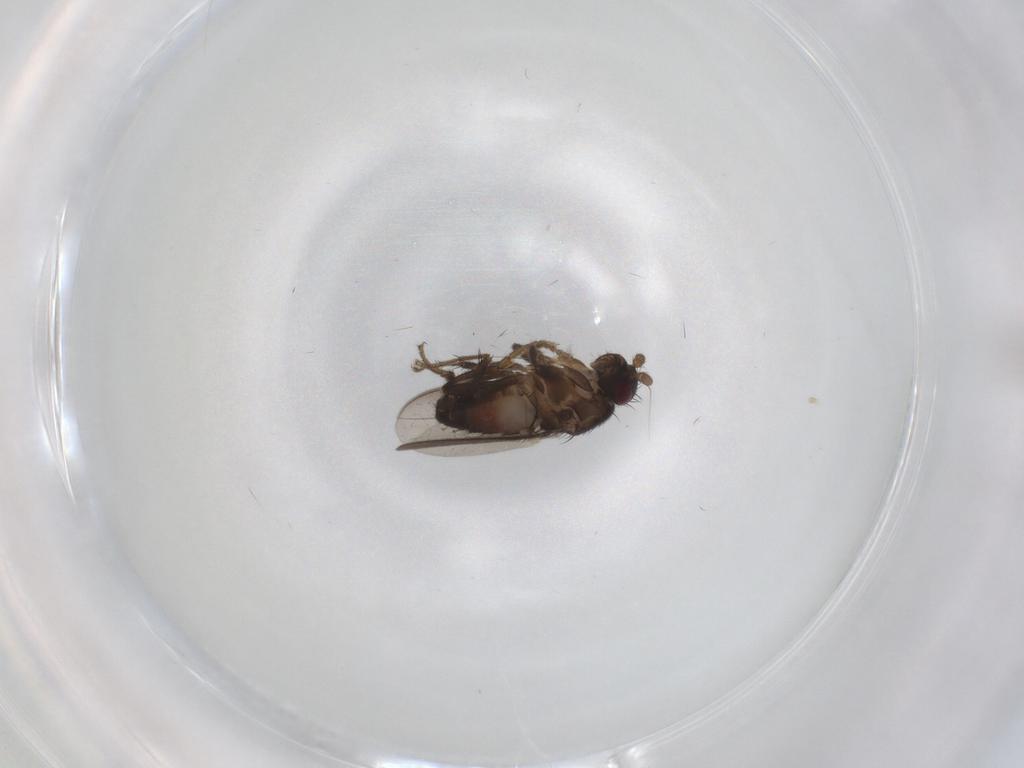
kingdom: Animalia
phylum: Arthropoda
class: Insecta
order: Diptera
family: Sphaeroceridae
